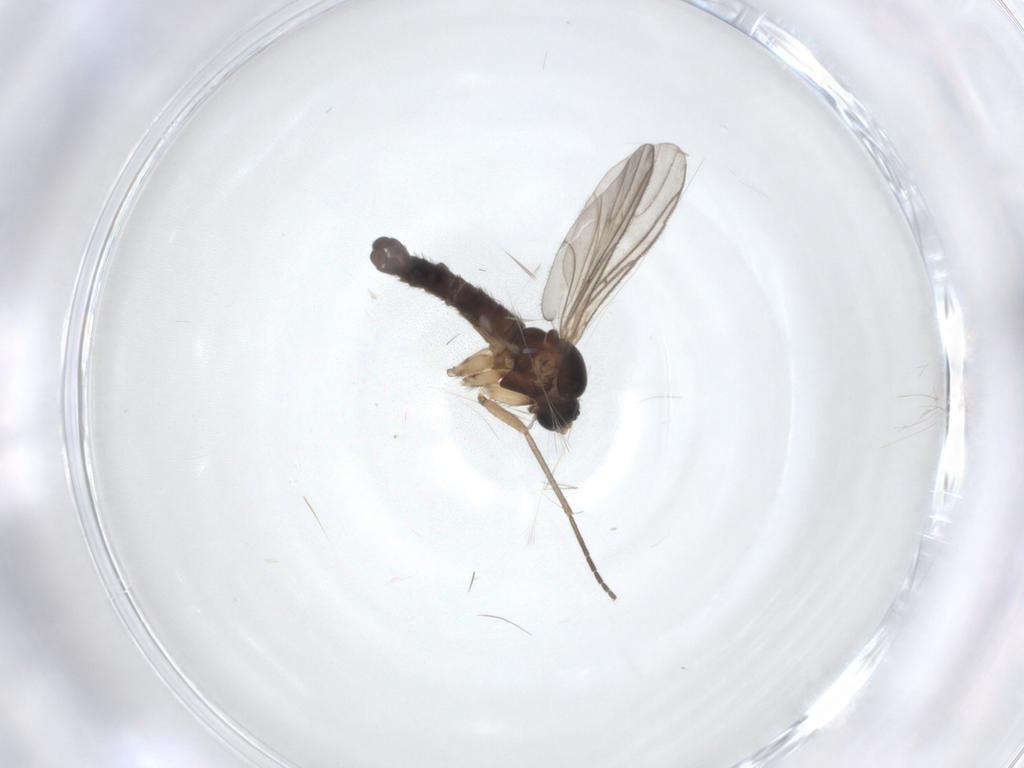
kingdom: Animalia
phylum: Arthropoda
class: Insecta
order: Diptera
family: Sciaridae
